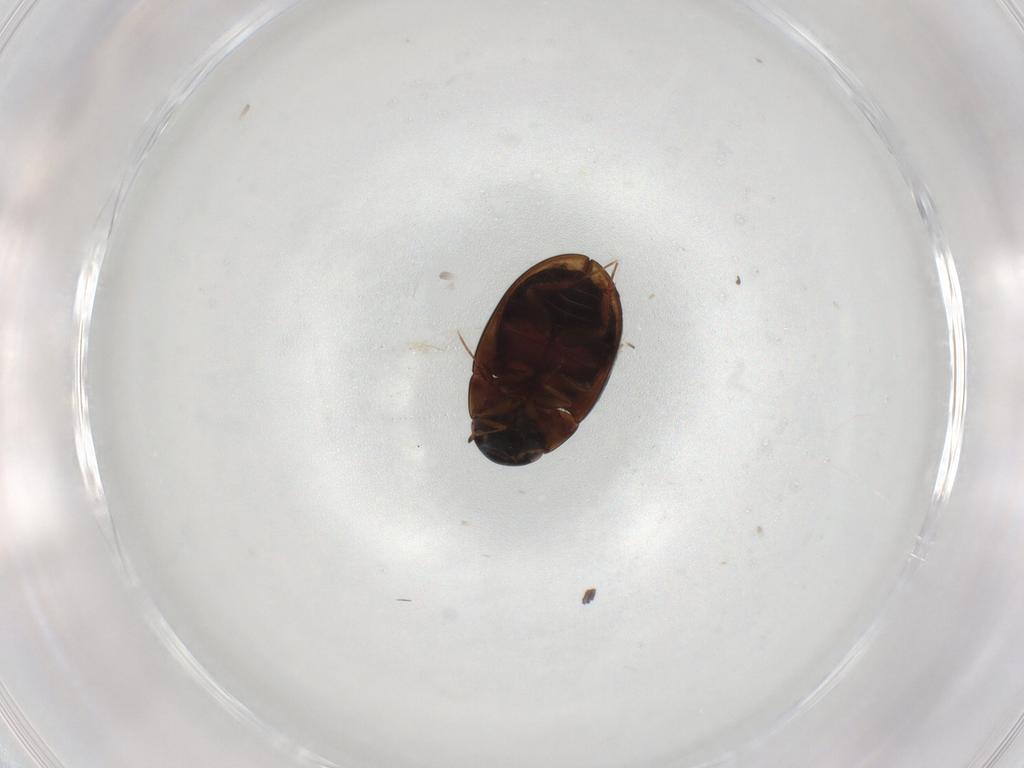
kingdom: Animalia
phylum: Arthropoda
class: Insecta
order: Coleoptera
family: Hydrophilidae
